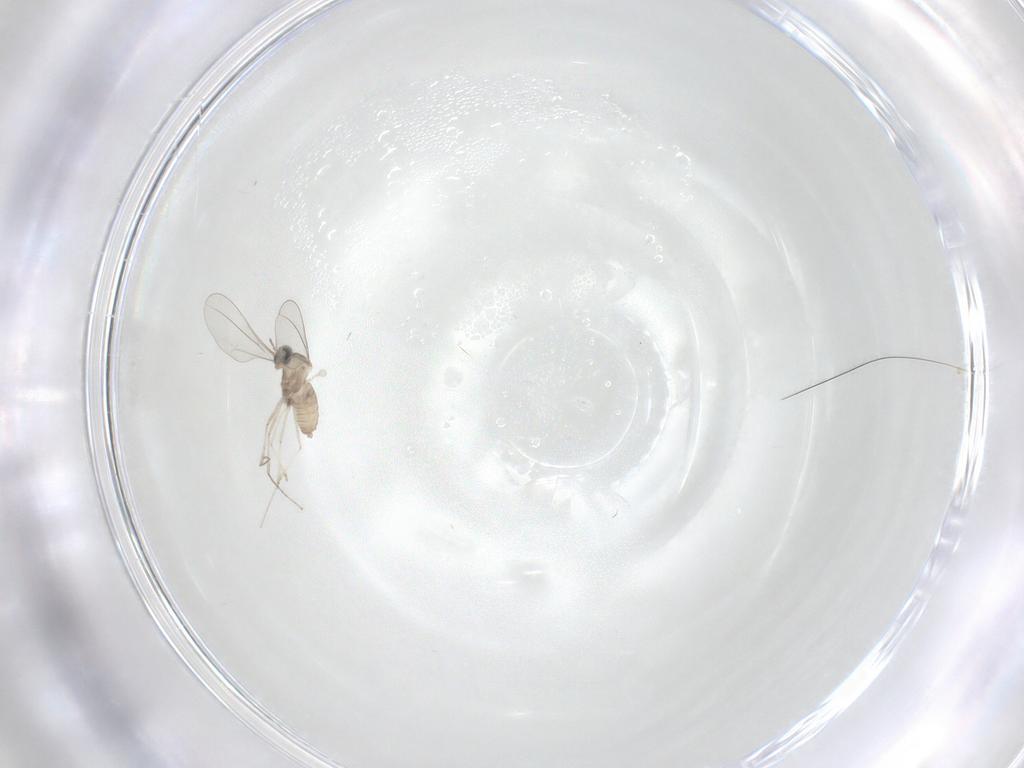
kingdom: Animalia
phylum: Arthropoda
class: Insecta
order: Diptera
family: Cecidomyiidae
